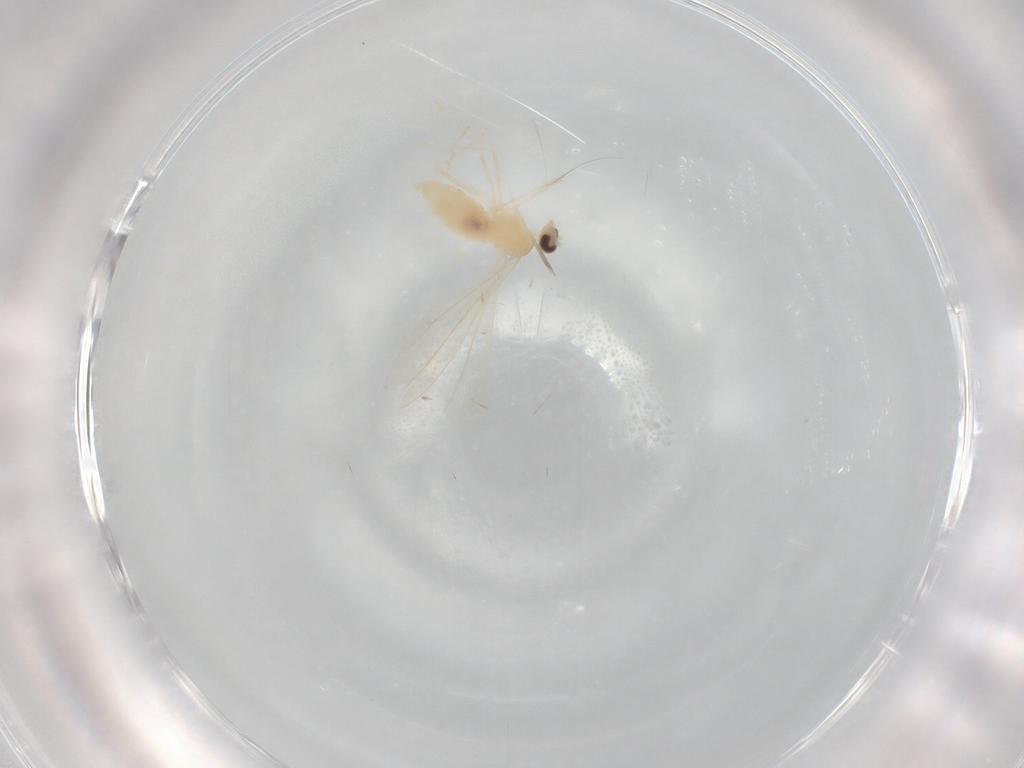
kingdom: Animalia
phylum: Arthropoda
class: Insecta
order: Diptera
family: Cecidomyiidae
